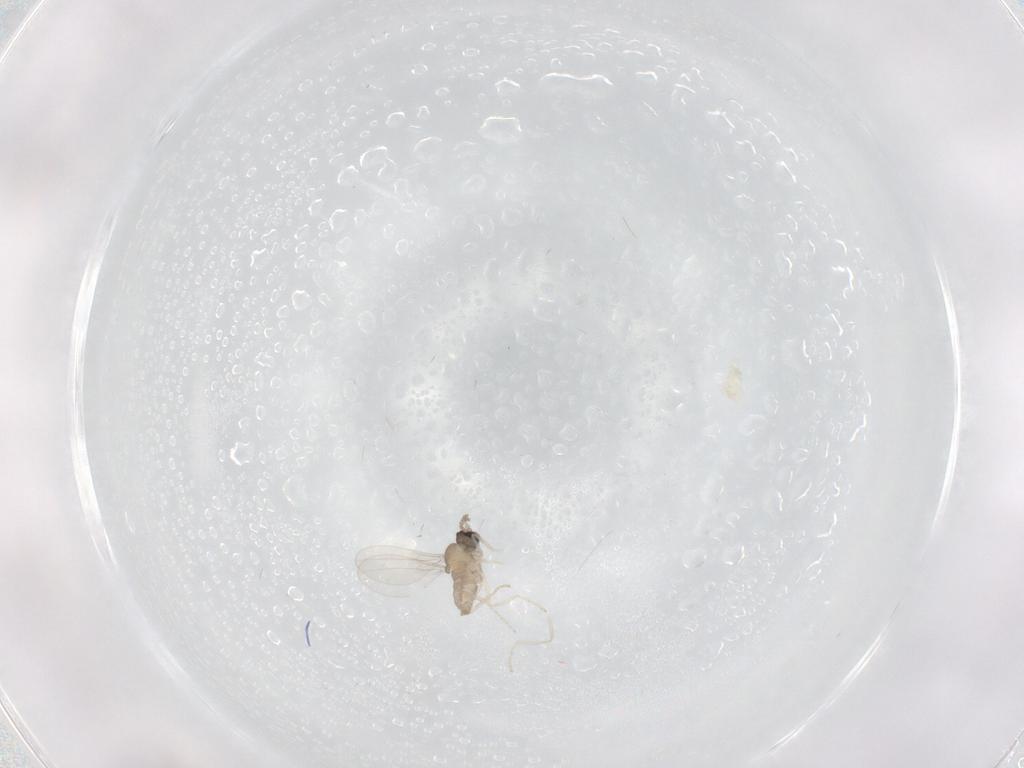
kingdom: Animalia
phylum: Arthropoda
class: Insecta
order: Diptera
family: Cecidomyiidae
